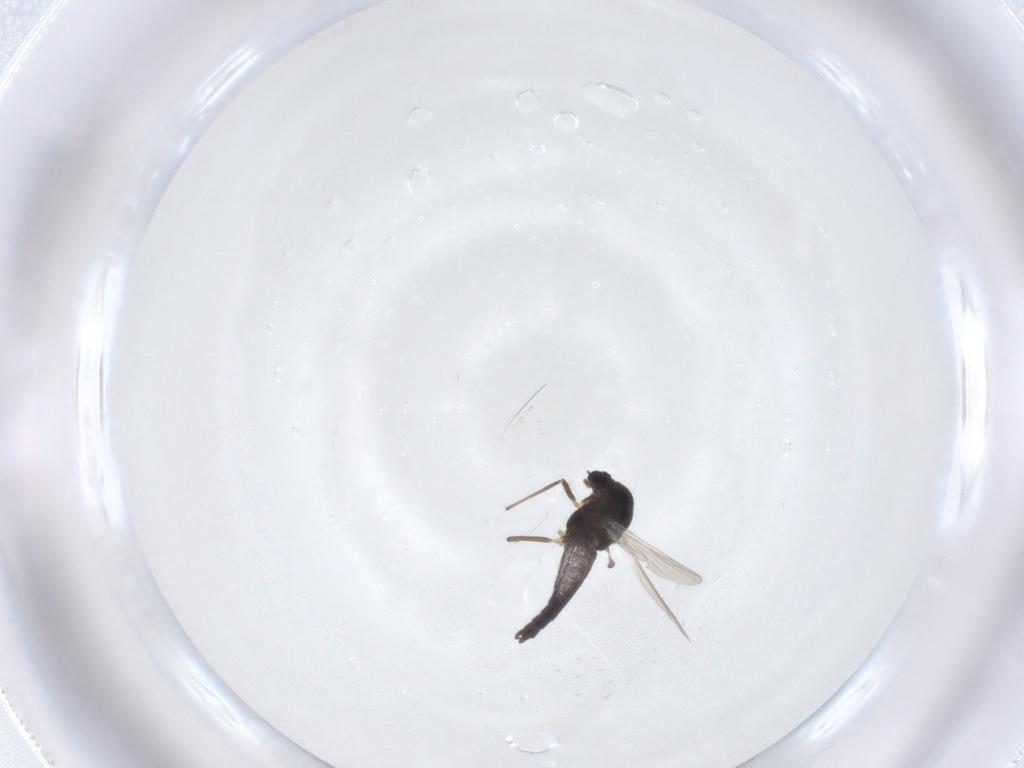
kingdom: Animalia
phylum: Arthropoda
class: Insecta
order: Diptera
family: Chironomidae
